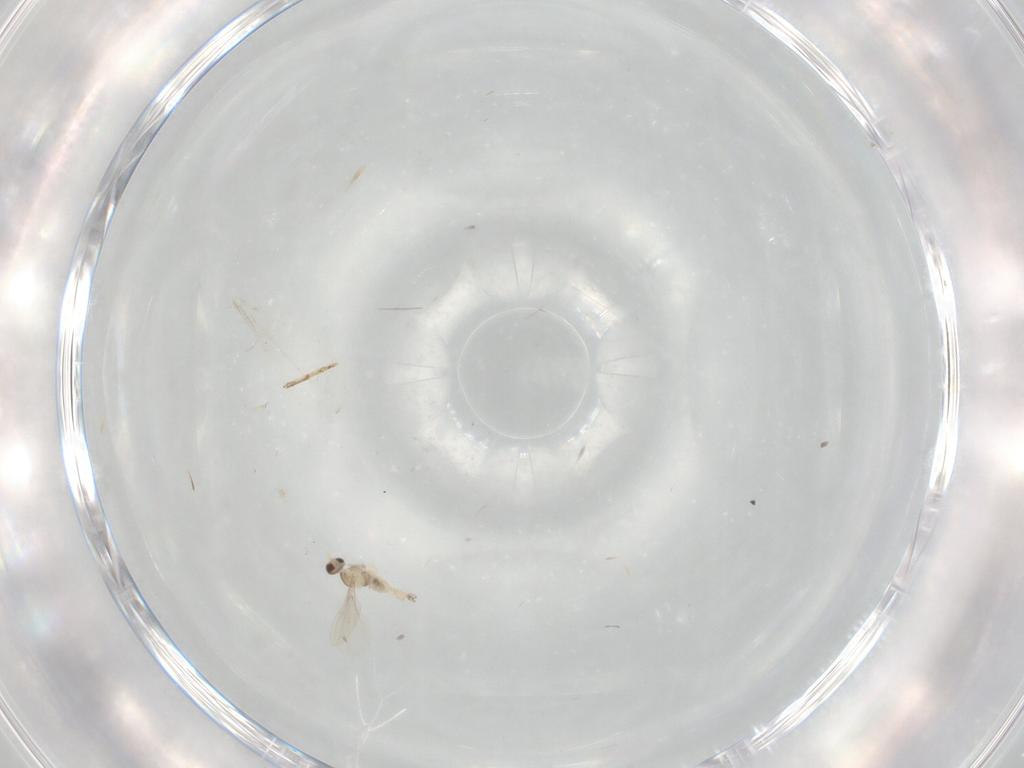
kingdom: Animalia
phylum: Arthropoda
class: Insecta
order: Diptera
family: Cecidomyiidae
